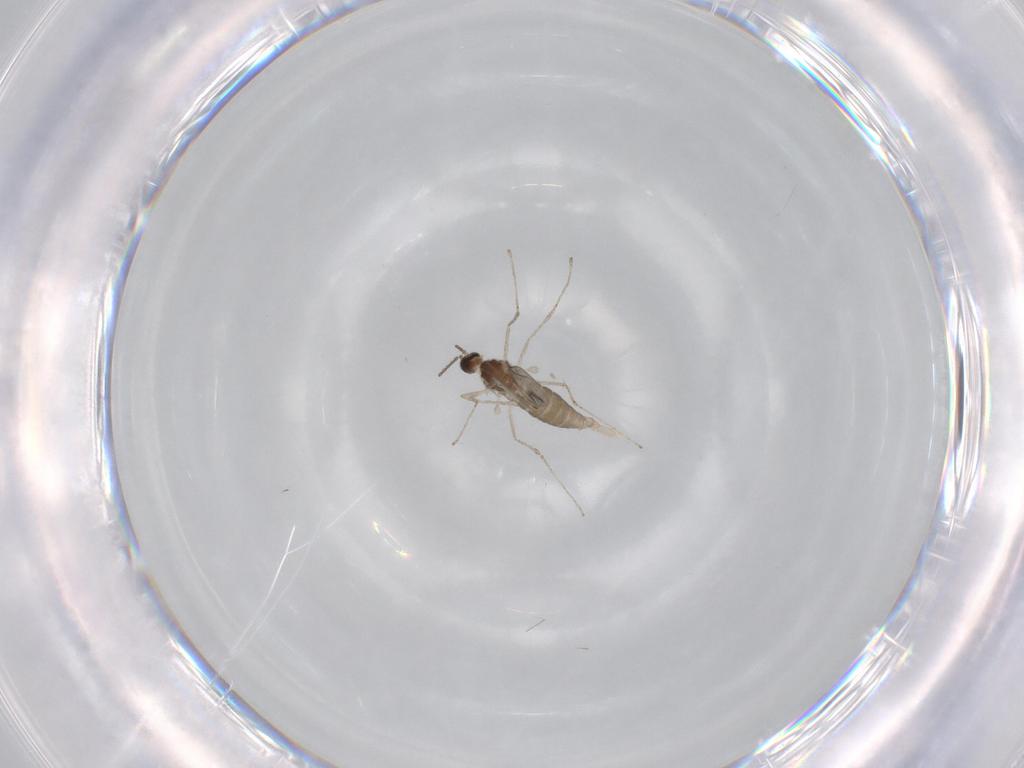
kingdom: Animalia
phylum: Arthropoda
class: Insecta
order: Diptera
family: Chironomidae
